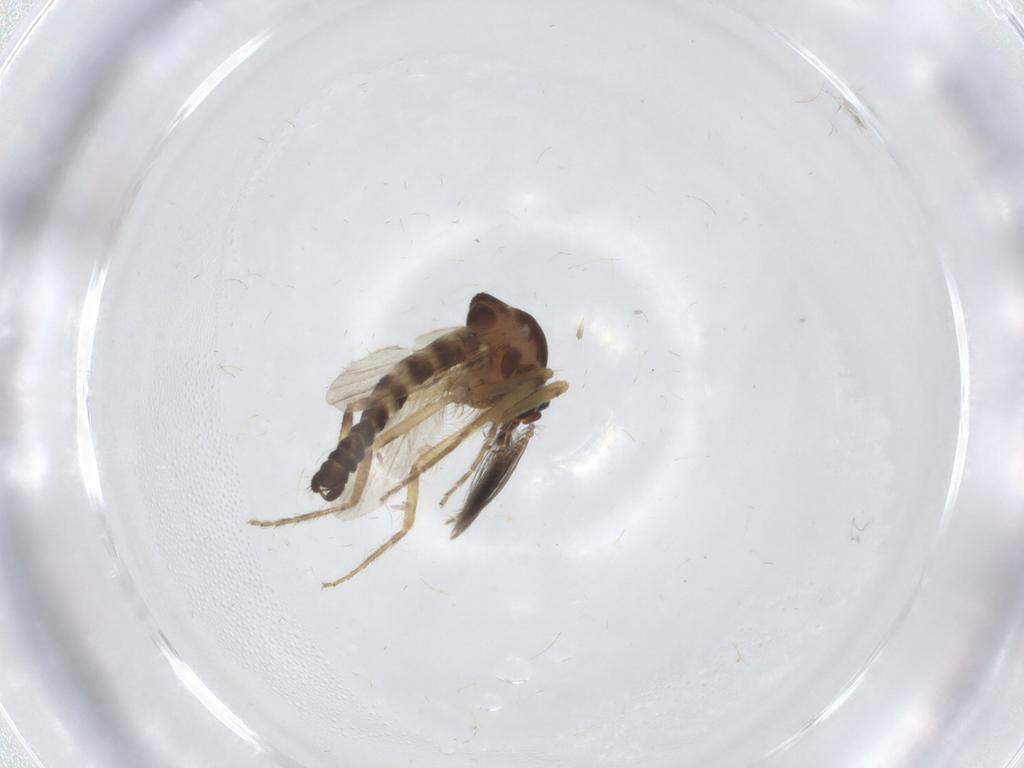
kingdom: Animalia
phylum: Arthropoda
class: Insecta
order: Diptera
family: Ceratopogonidae
